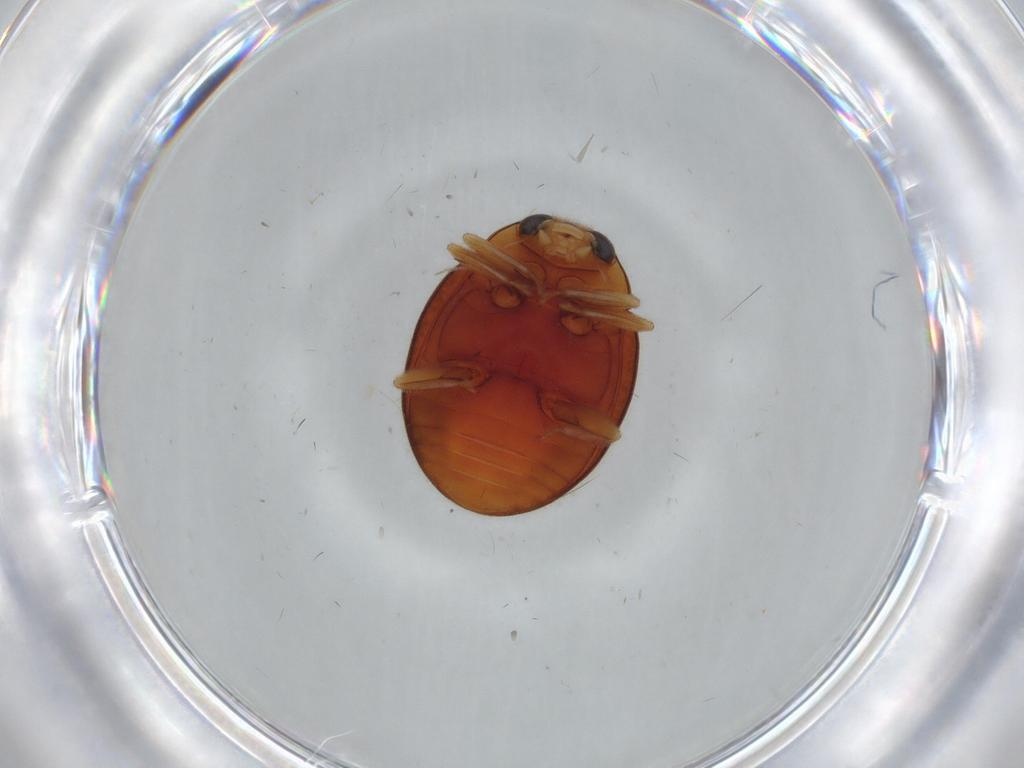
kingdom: Animalia
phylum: Arthropoda
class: Insecta
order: Coleoptera
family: Coccinellidae
